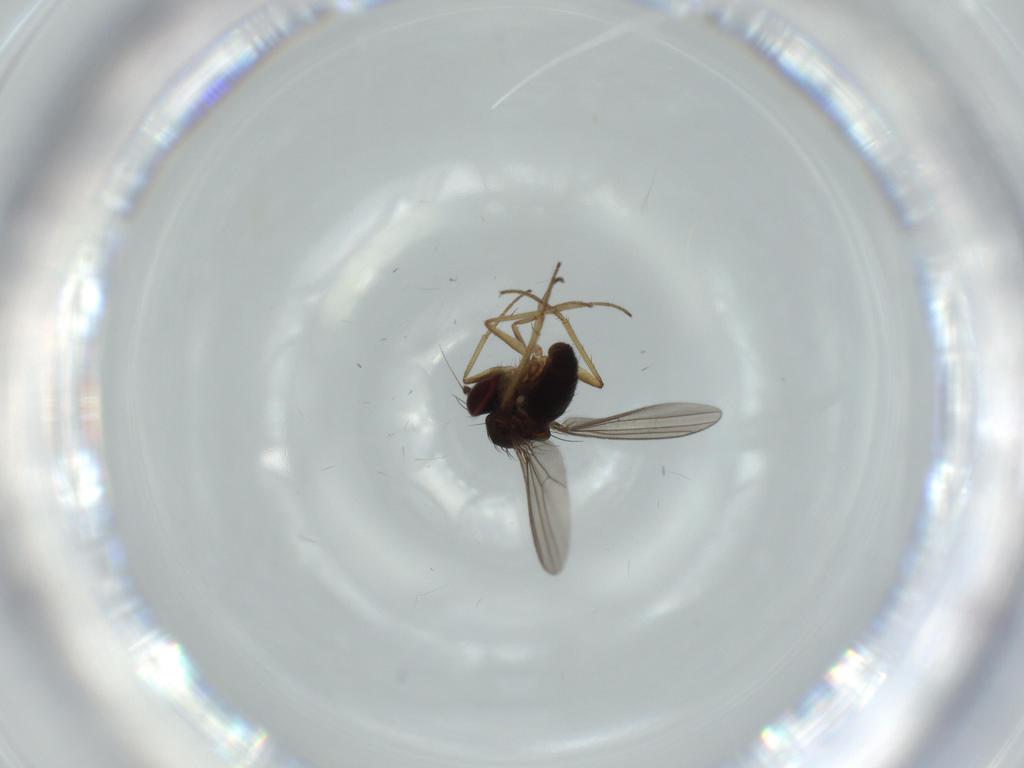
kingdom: Animalia
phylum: Arthropoda
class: Insecta
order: Diptera
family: Dolichopodidae
